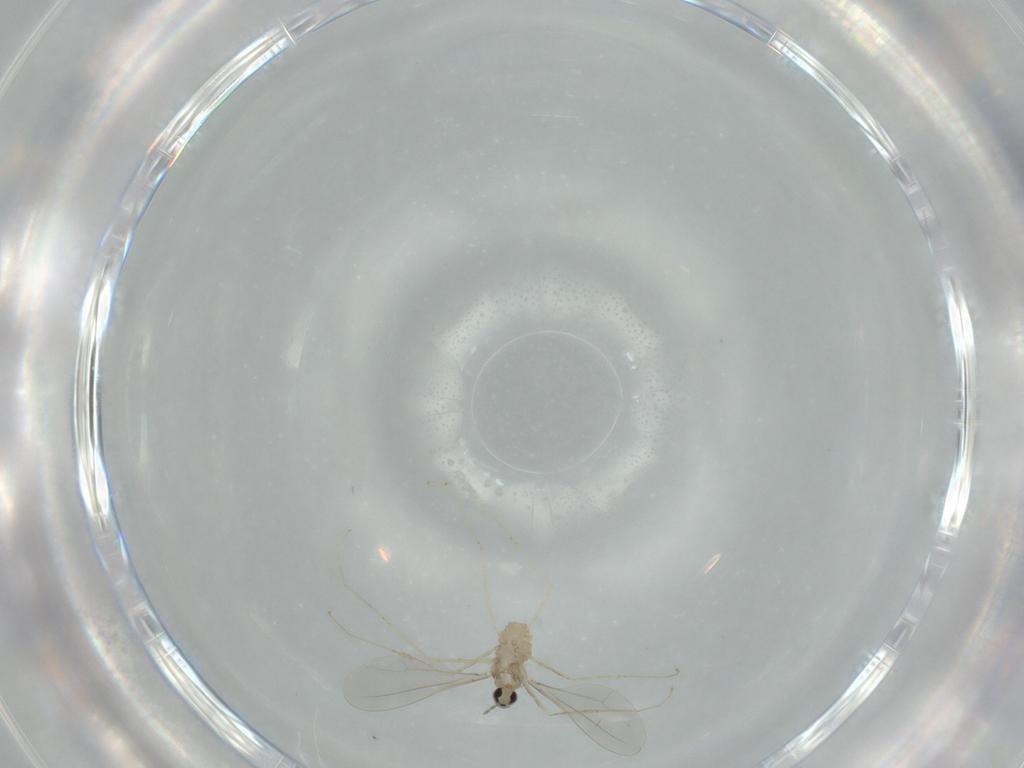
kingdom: Animalia
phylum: Arthropoda
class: Insecta
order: Diptera
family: Cecidomyiidae
